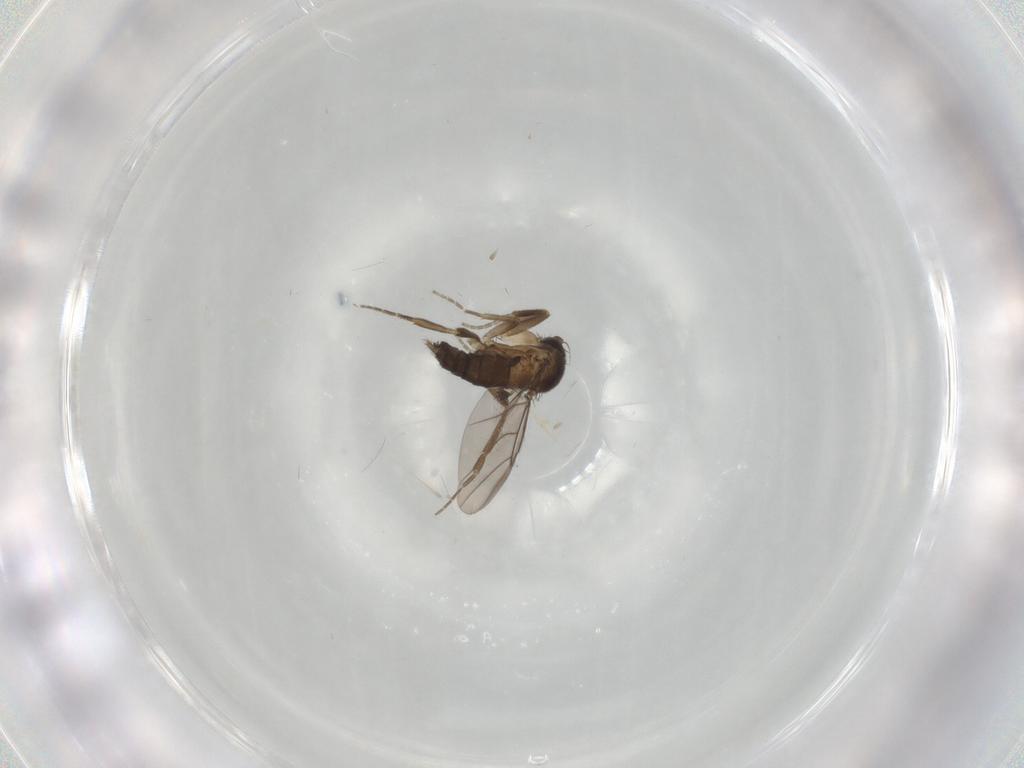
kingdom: Animalia
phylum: Arthropoda
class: Insecta
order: Diptera
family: Phoridae
